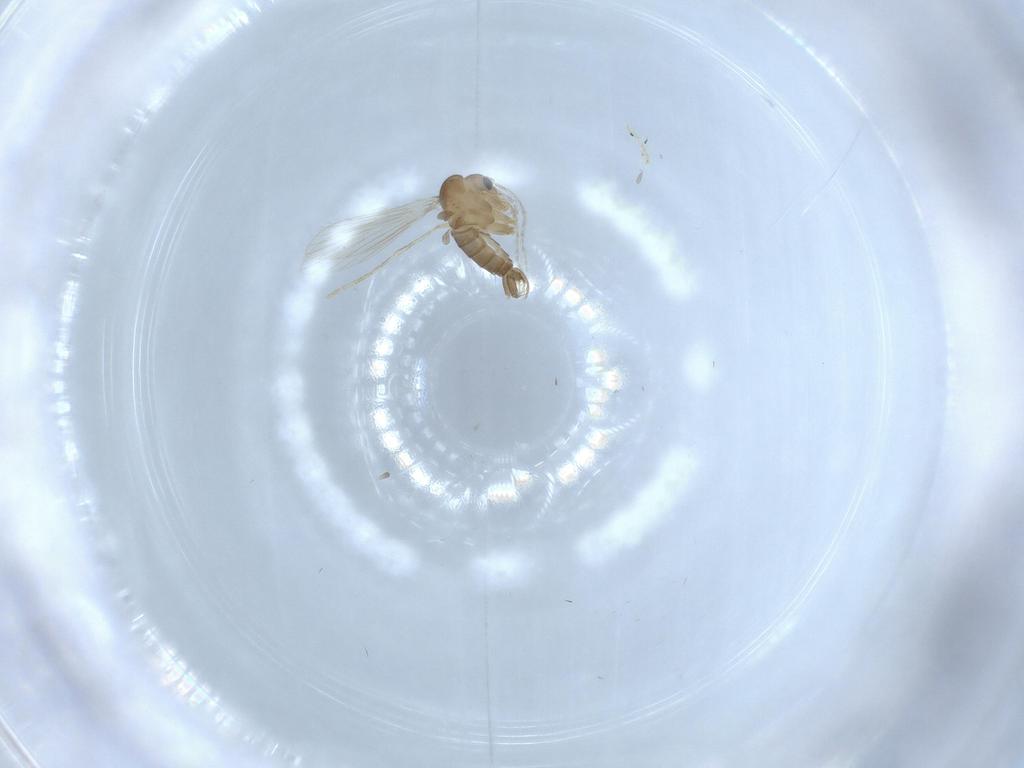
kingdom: Animalia
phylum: Arthropoda
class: Insecta
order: Diptera
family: Psychodidae
